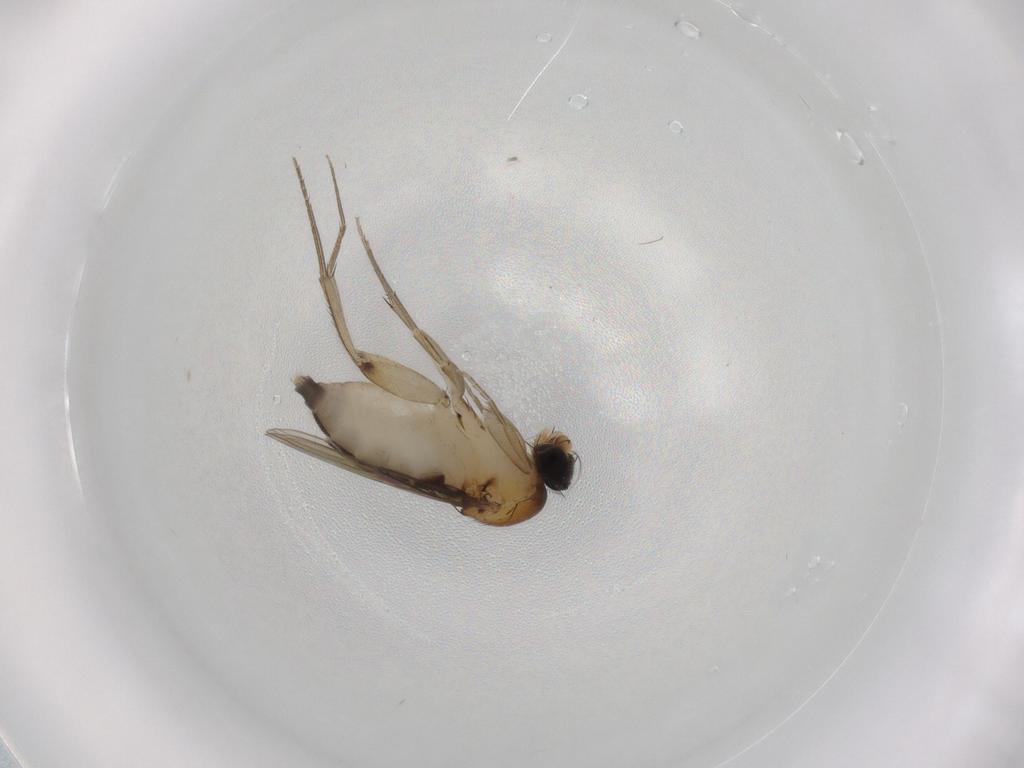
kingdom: Animalia
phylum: Arthropoda
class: Insecta
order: Diptera
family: Phoridae
